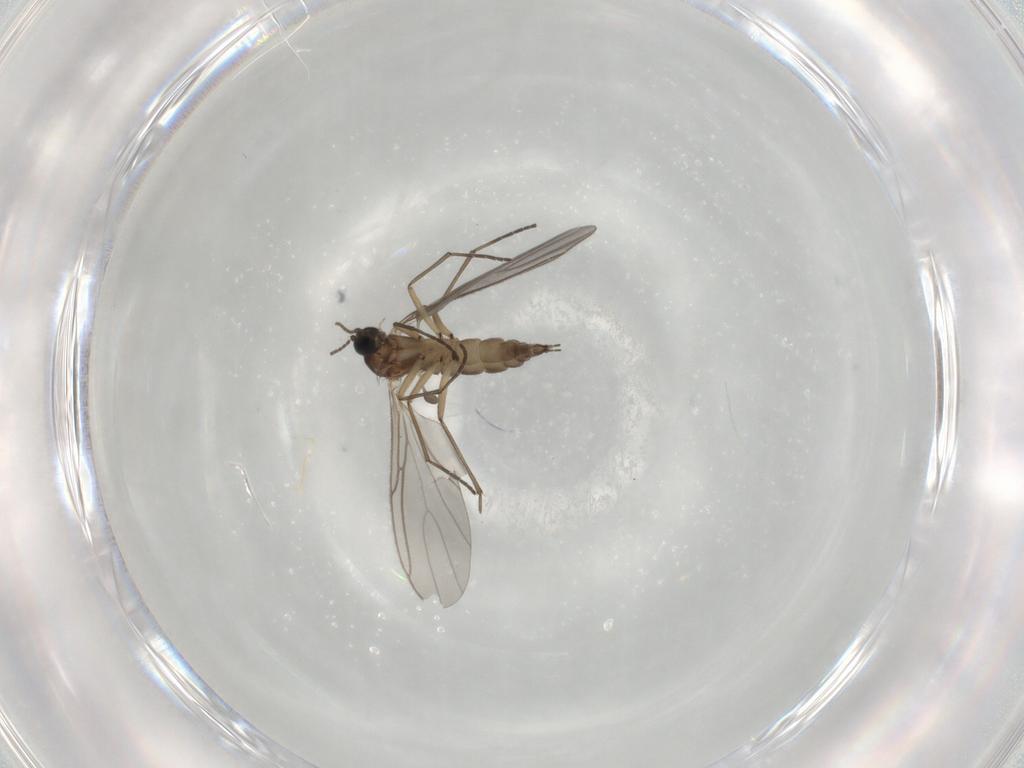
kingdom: Animalia
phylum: Arthropoda
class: Insecta
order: Diptera
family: Sciaridae
